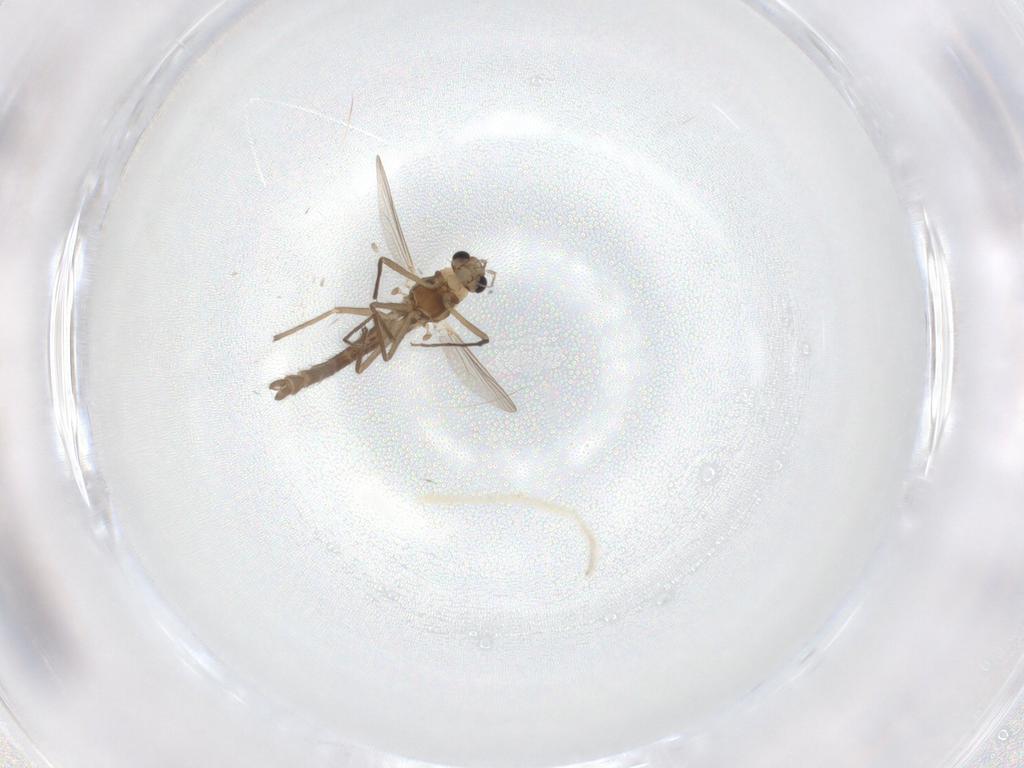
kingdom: Animalia
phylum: Arthropoda
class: Insecta
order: Diptera
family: Chironomidae
